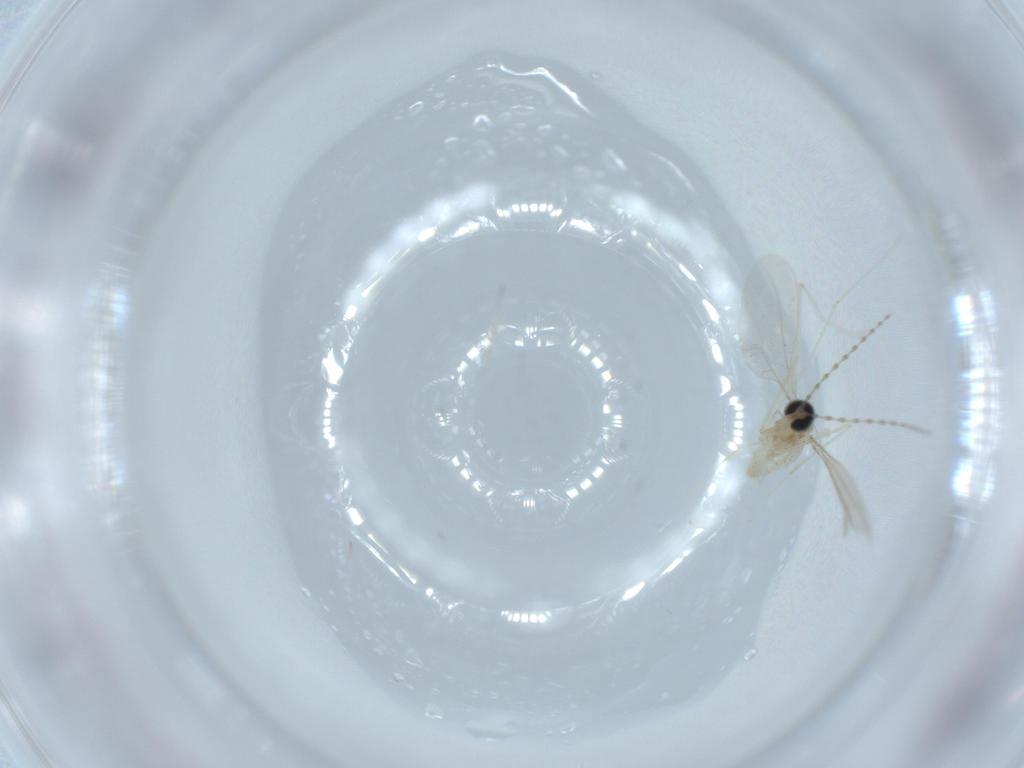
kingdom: Animalia
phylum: Arthropoda
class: Insecta
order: Diptera
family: Cecidomyiidae
